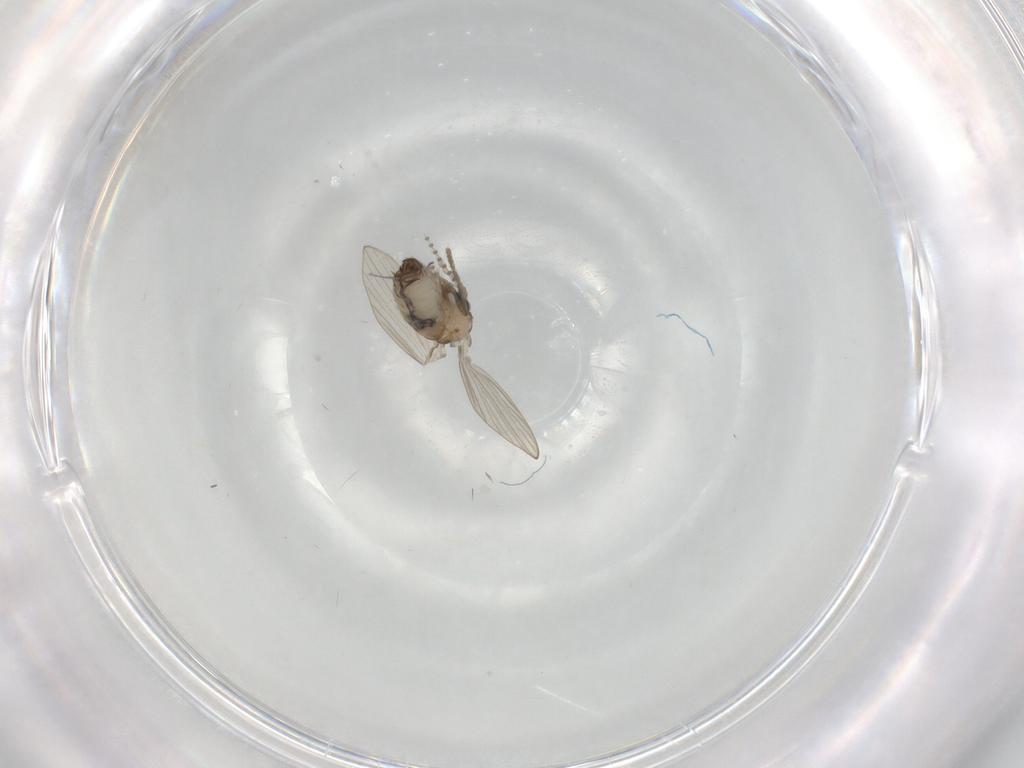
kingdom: Animalia
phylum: Arthropoda
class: Insecta
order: Diptera
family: Psychodidae
